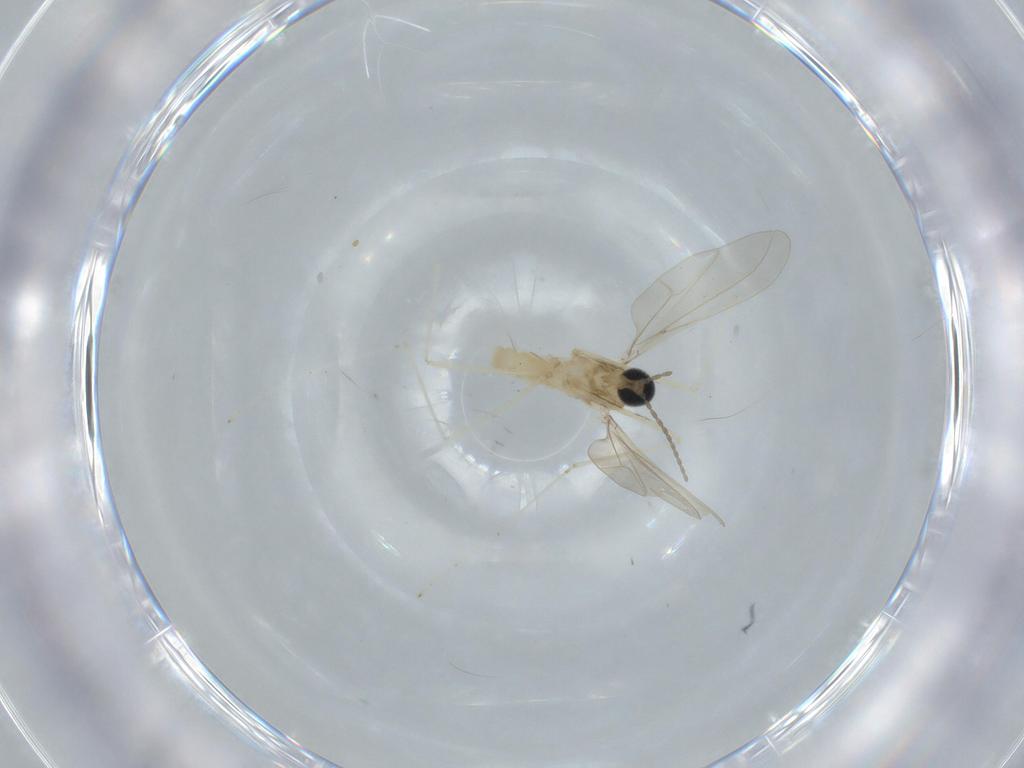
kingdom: Animalia
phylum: Arthropoda
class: Insecta
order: Diptera
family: Cecidomyiidae
